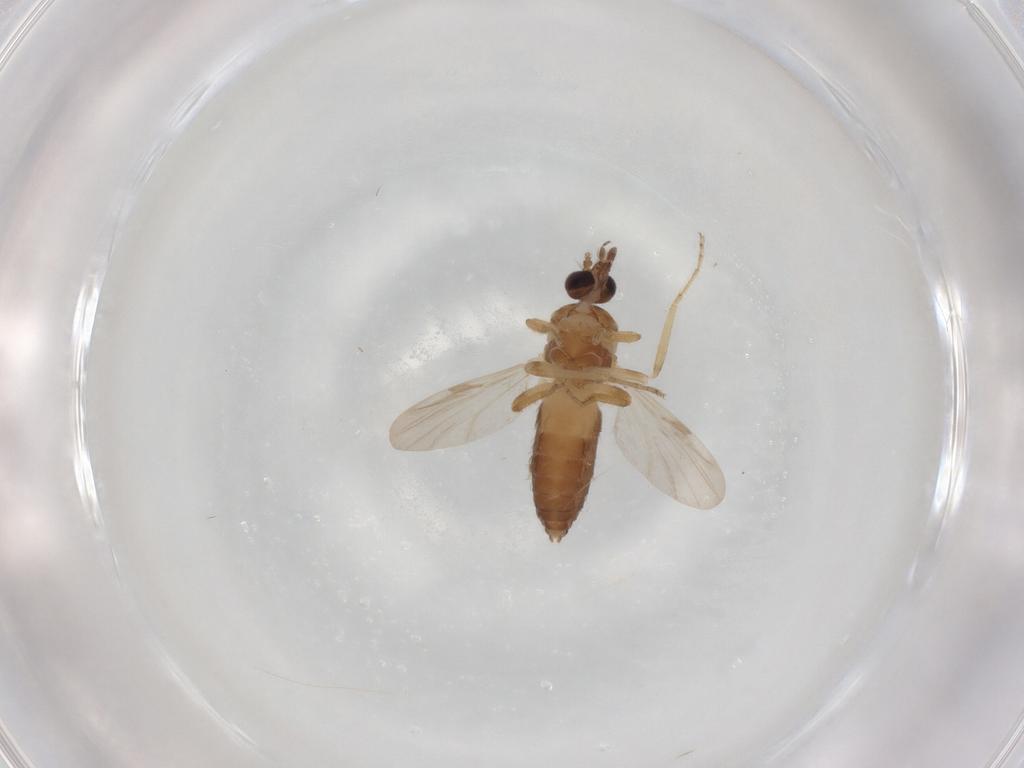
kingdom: Animalia
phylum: Arthropoda
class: Insecta
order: Diptera
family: Ceratopogonidae
